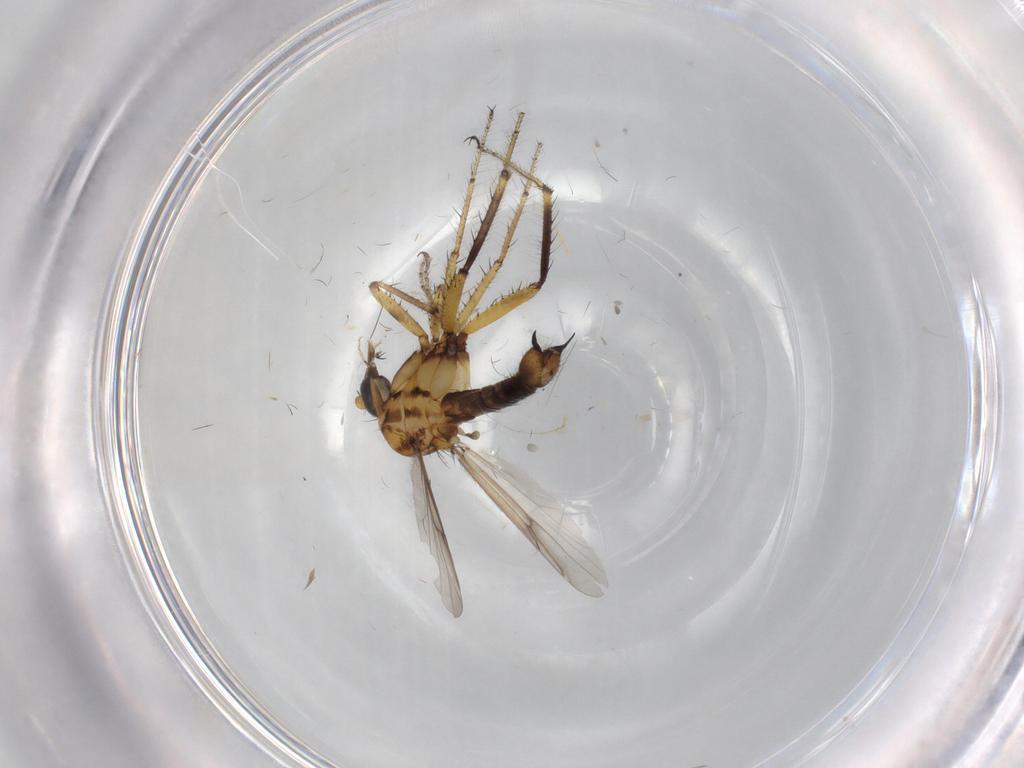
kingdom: Animalia
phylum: Arthropoda
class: Insecta
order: Diptera
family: Ceratopogonidae
